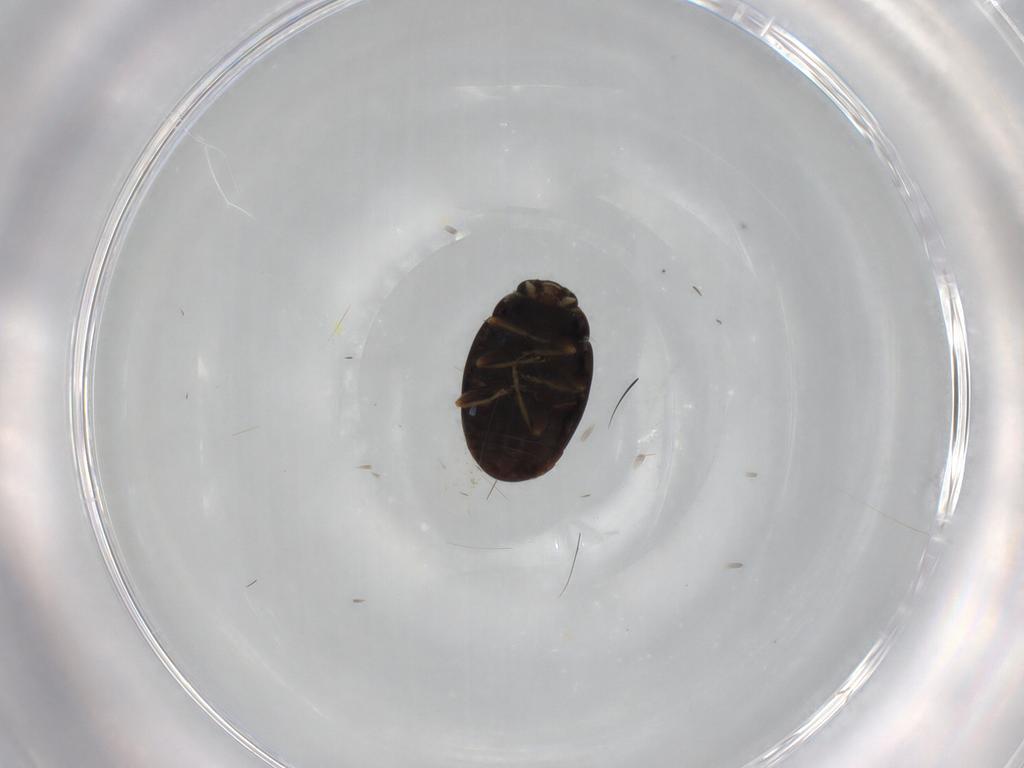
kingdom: Animalia
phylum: Arthropoda
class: Insecta
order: Coleoptera
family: Coccinellidae
